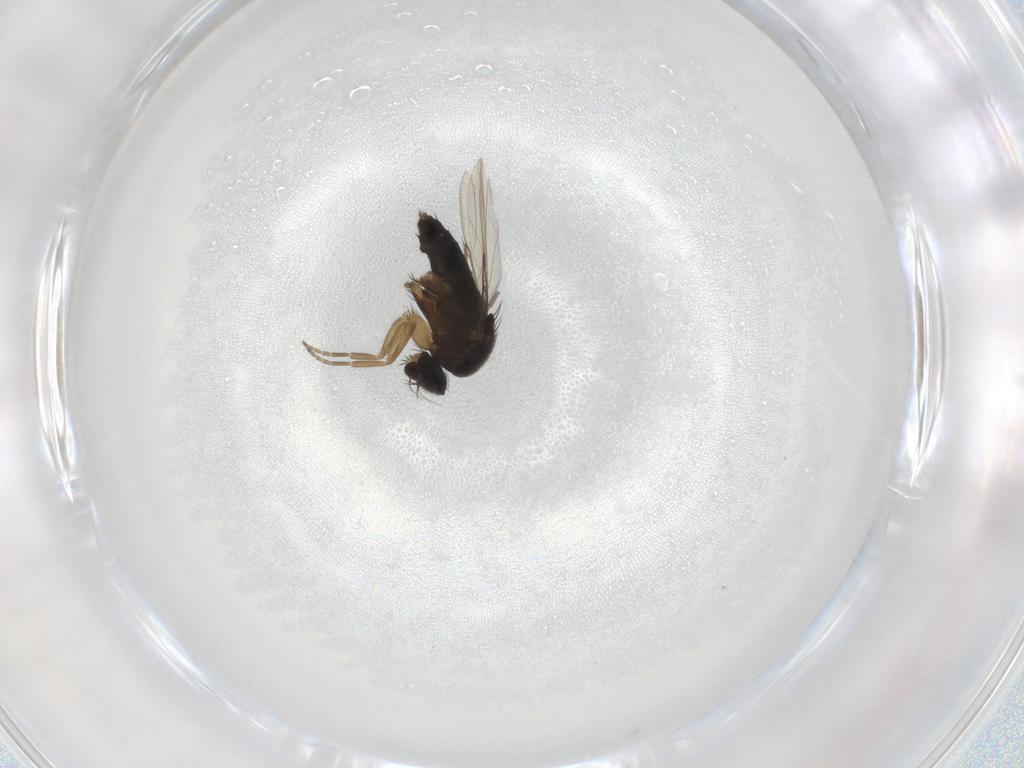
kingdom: Animalia
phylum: Arthropoda
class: Insecta
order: Diptera
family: Phoridae
